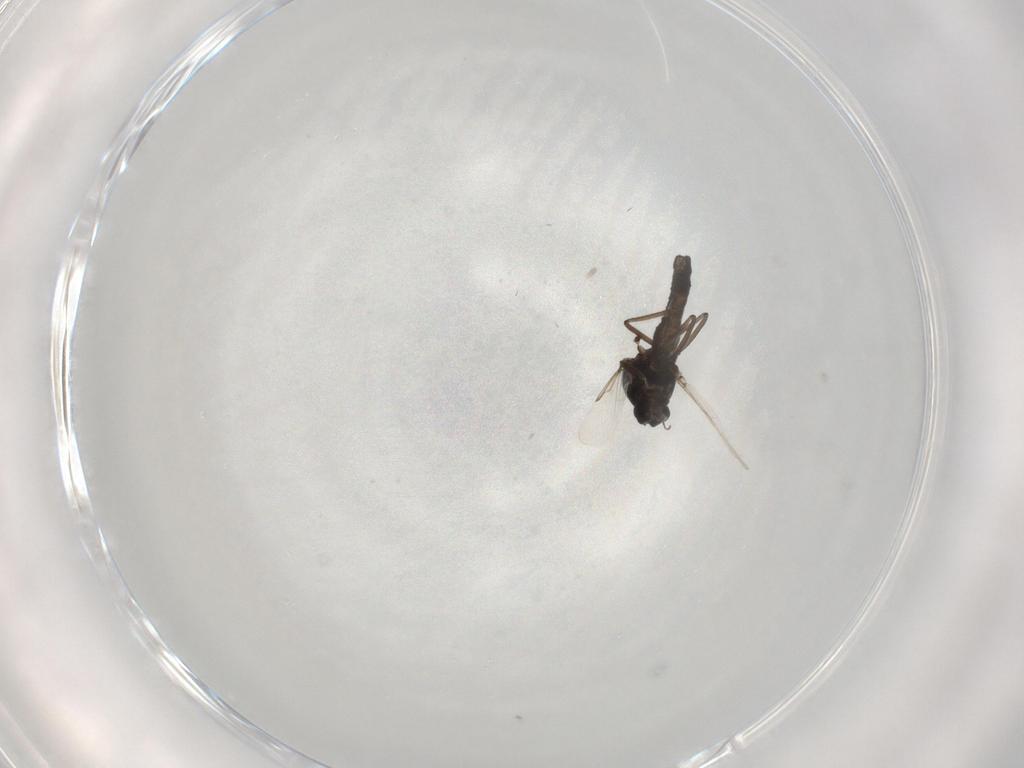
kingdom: Animalia
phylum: Arthropoda
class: Insecta
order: Diptera
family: Ceratopogonidae
